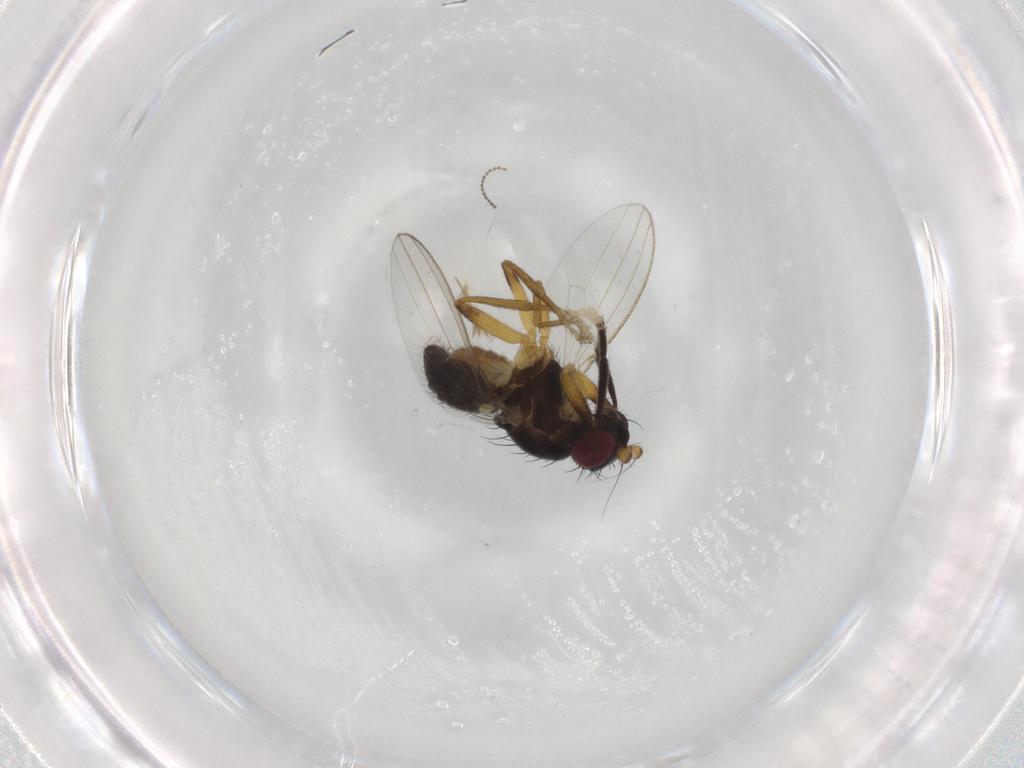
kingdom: Animalia
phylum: Arthropoda
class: Insecta
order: Diptera
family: Cypselosomatidae
